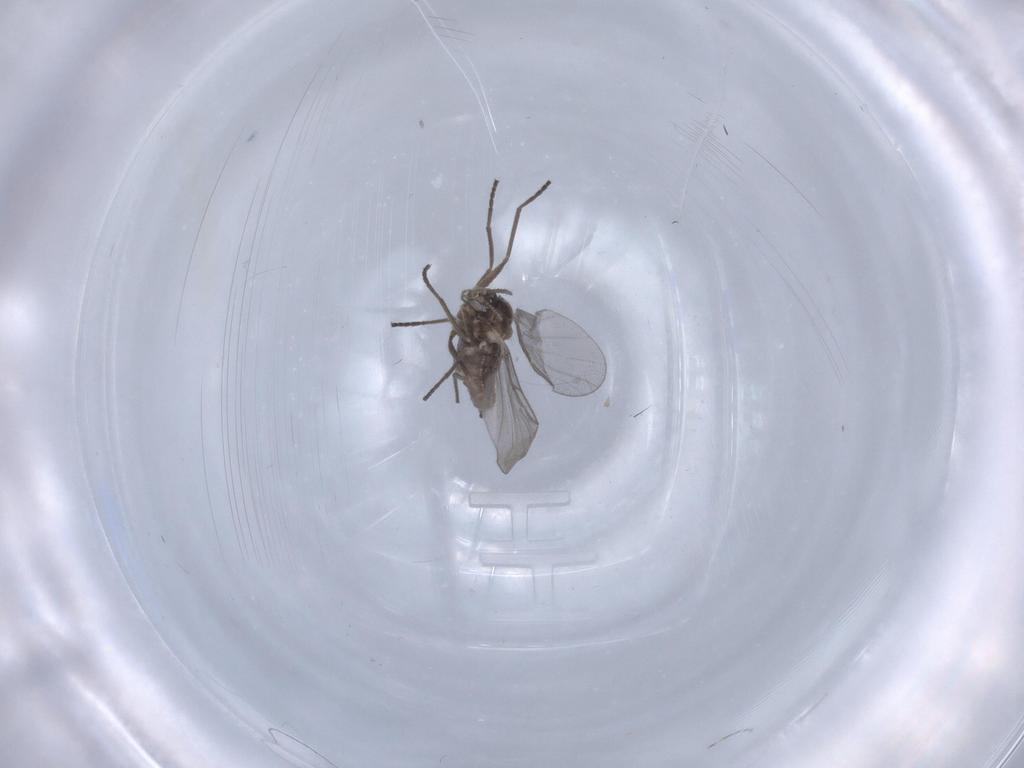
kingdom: Animalia
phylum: Arthropoda
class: Insecta
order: Diptera
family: Cecidomyiidae
